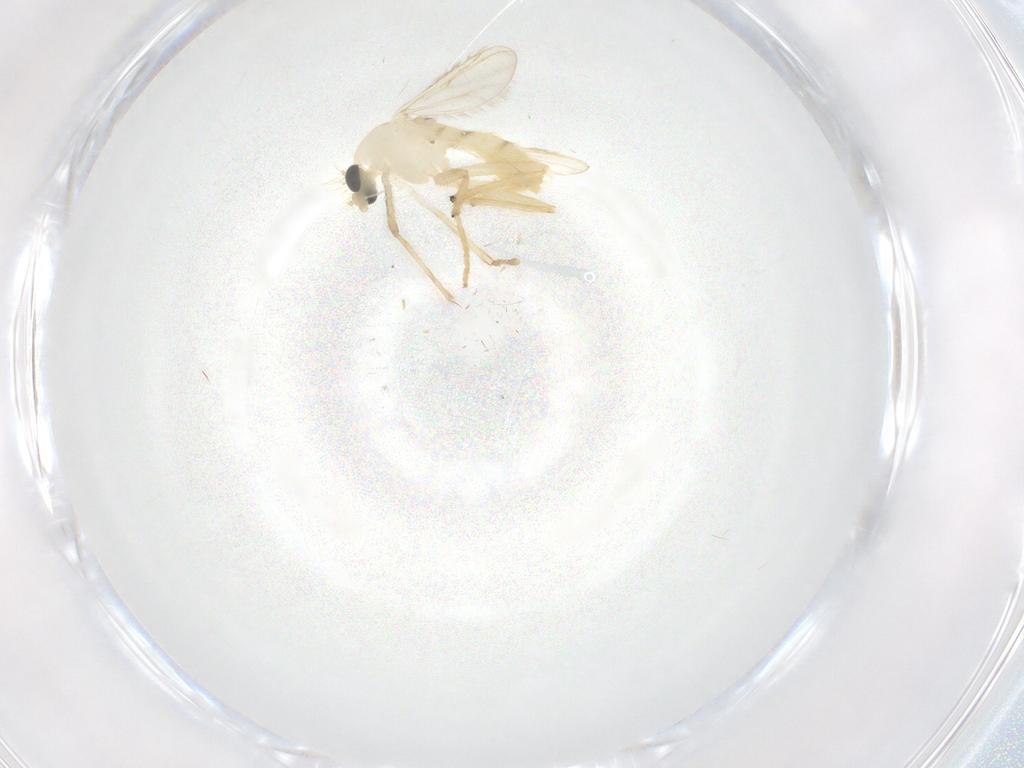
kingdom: Animalia
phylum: Arthropoda
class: Insecta
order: Diptera
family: Chironomidae
